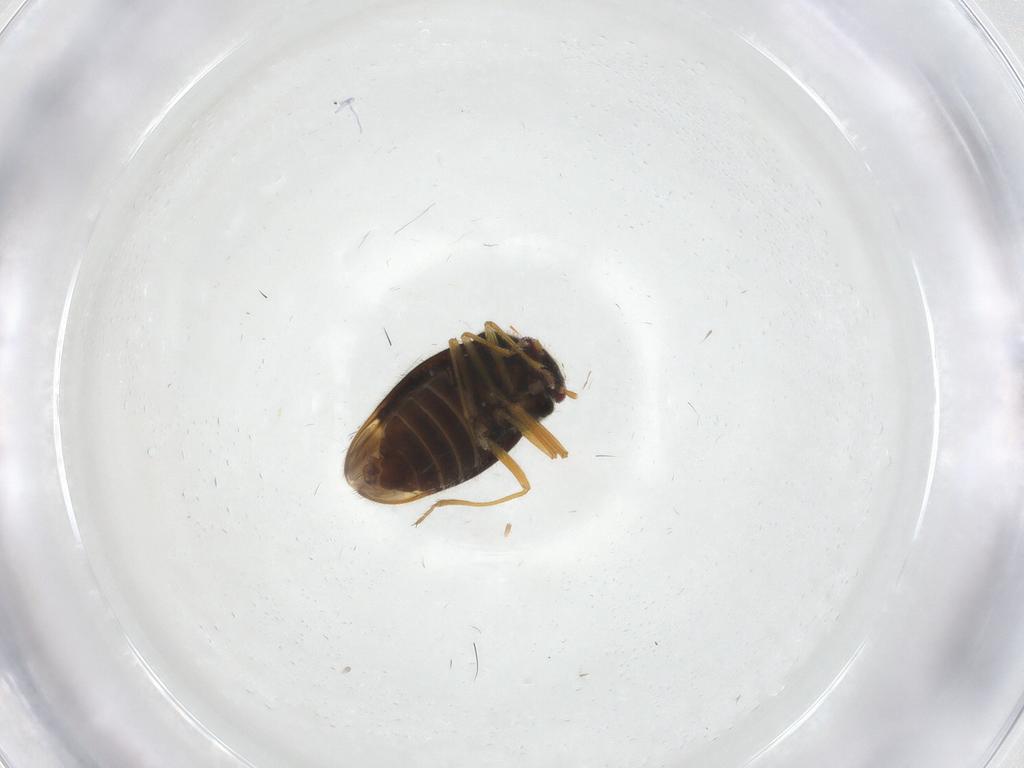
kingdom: Animalia
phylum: Arthropoda
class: Insecta
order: Hemiptera
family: Schizopteridae
